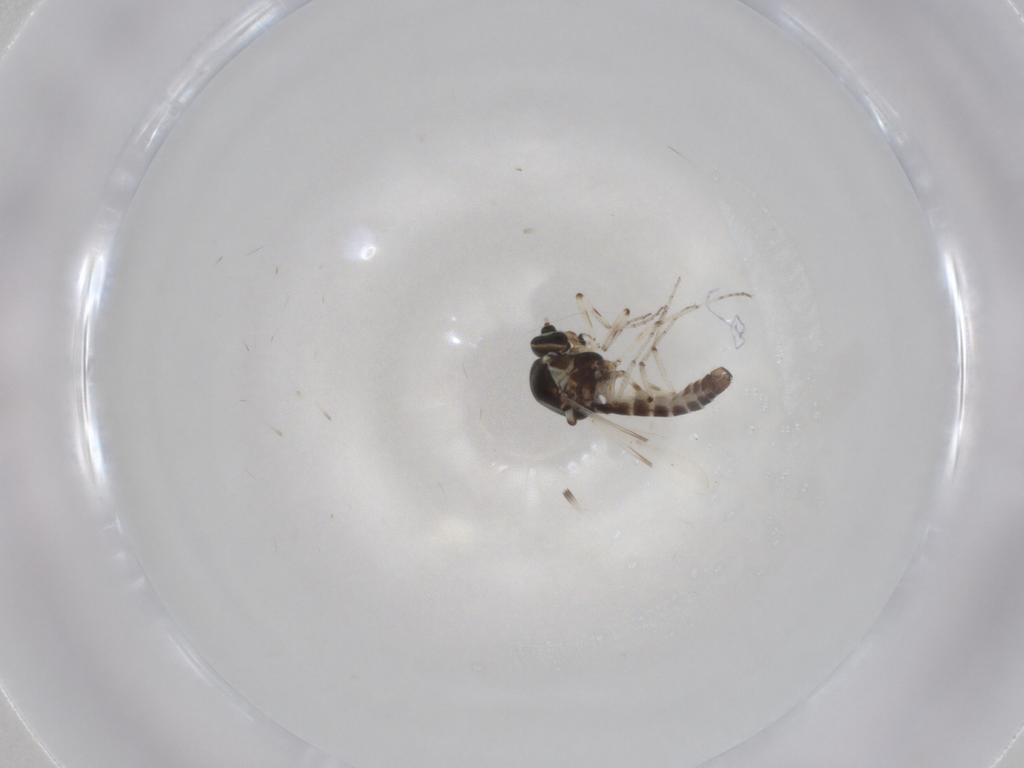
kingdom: Animalia
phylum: Arthropoda
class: Insecta
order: Diptera
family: Ceratopogonidae
